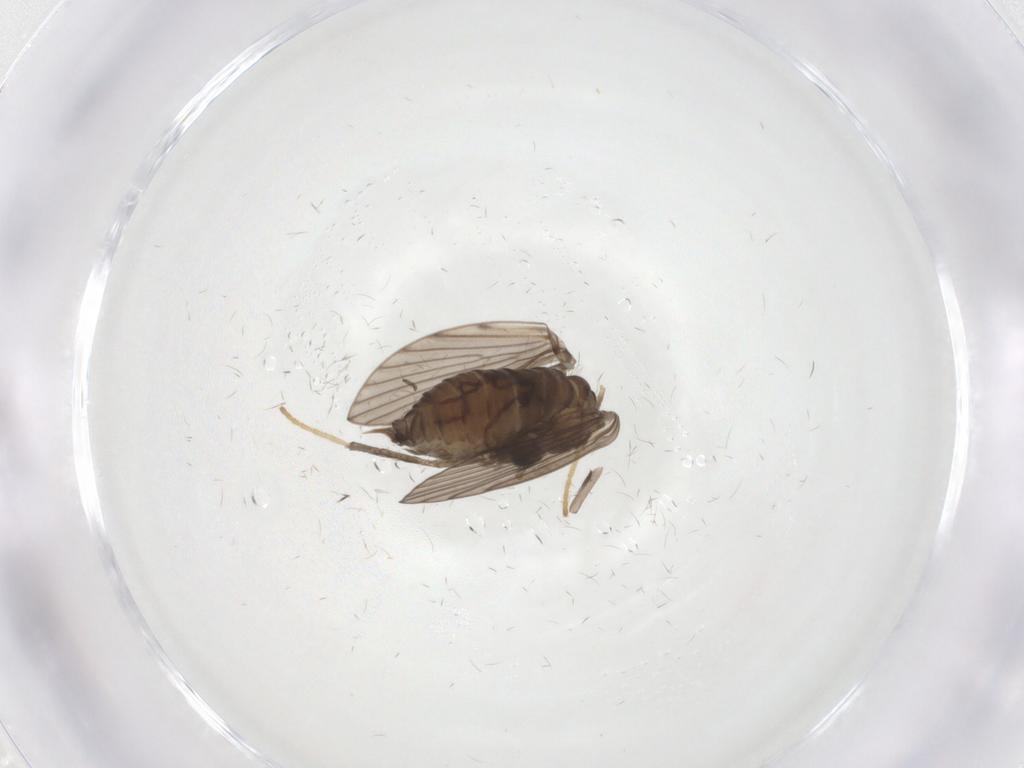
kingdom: Animalia
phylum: Arthropoda
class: Insecta
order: Diptera
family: Psychodidae
